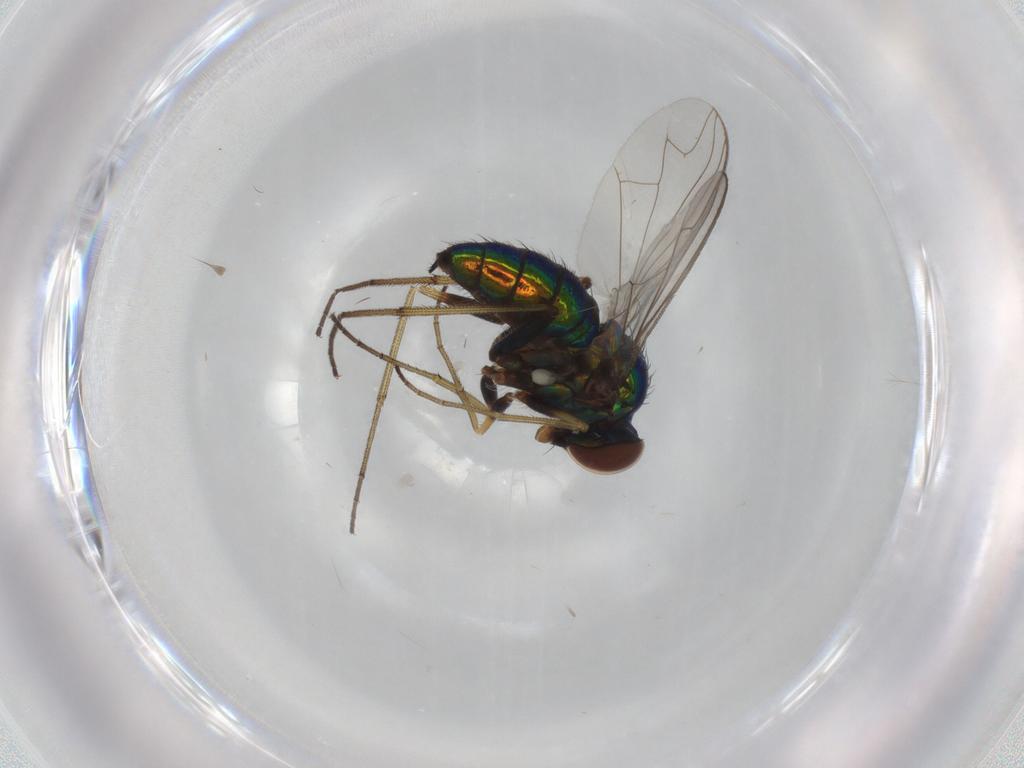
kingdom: Animalia
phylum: Arthropoda
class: Insecta
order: Diptera
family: Dolichopodidae
